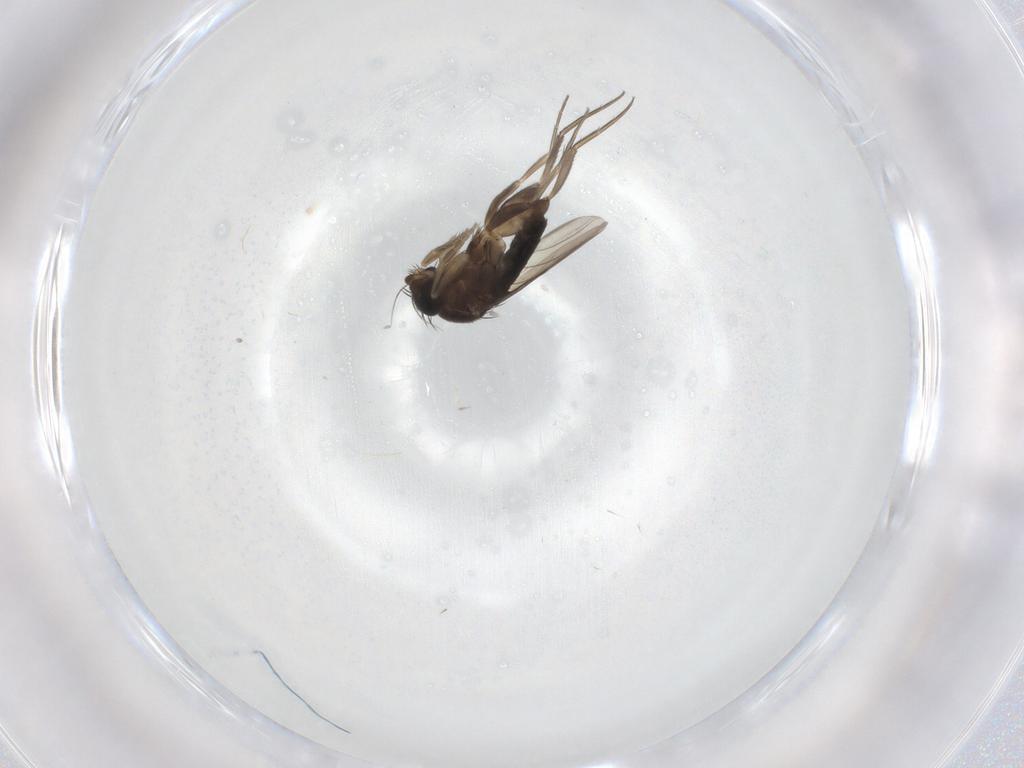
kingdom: Animalia
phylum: Arthropoda
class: Insecta
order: Diptera
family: Phoridae
